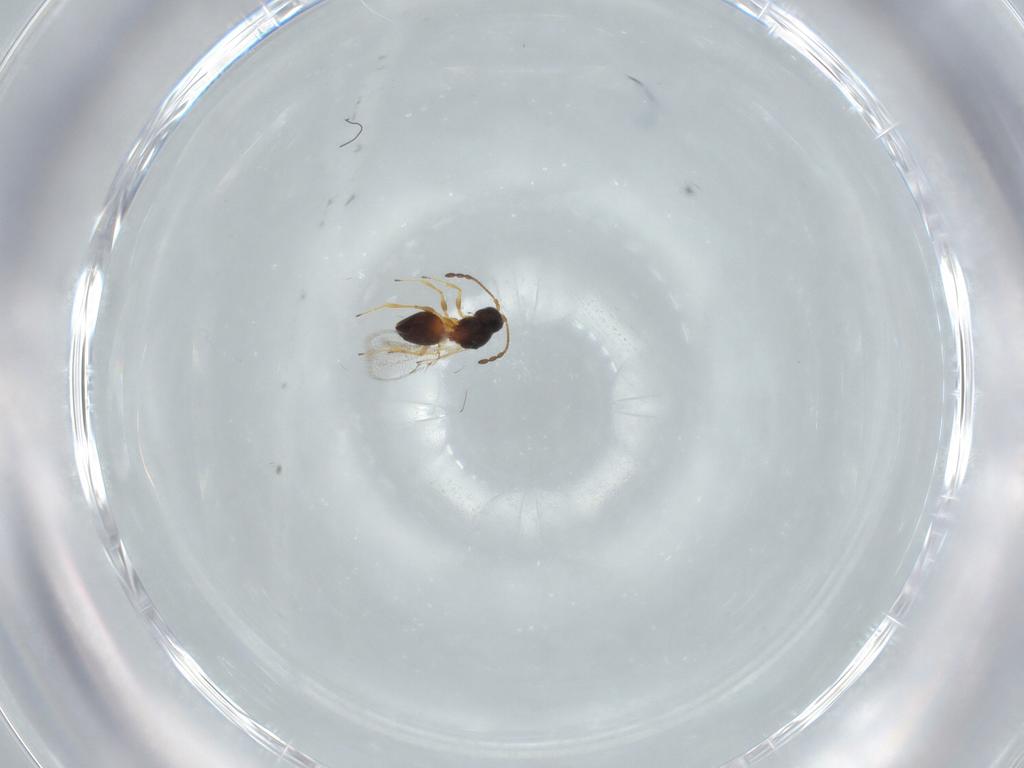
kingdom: Animalia
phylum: Arthropoda
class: Insecta
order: Hymenoptera
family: Figitidae
